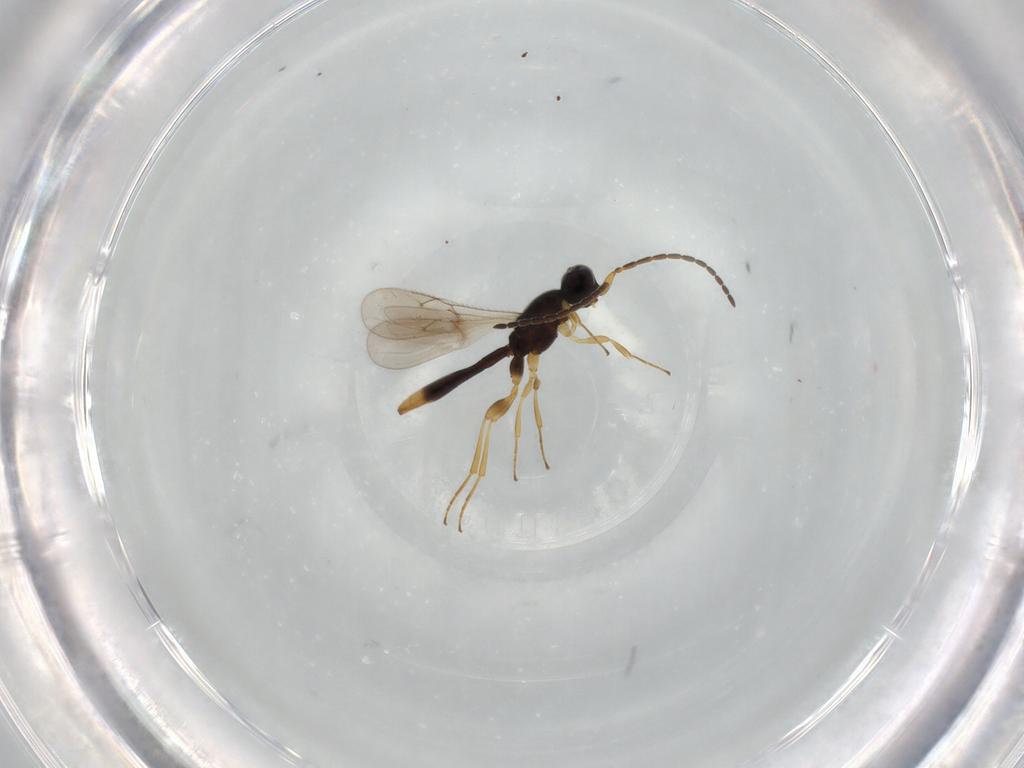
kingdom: Animalia
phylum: Arthropoda
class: Insecta
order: Hymenoptera
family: Scelionidae
